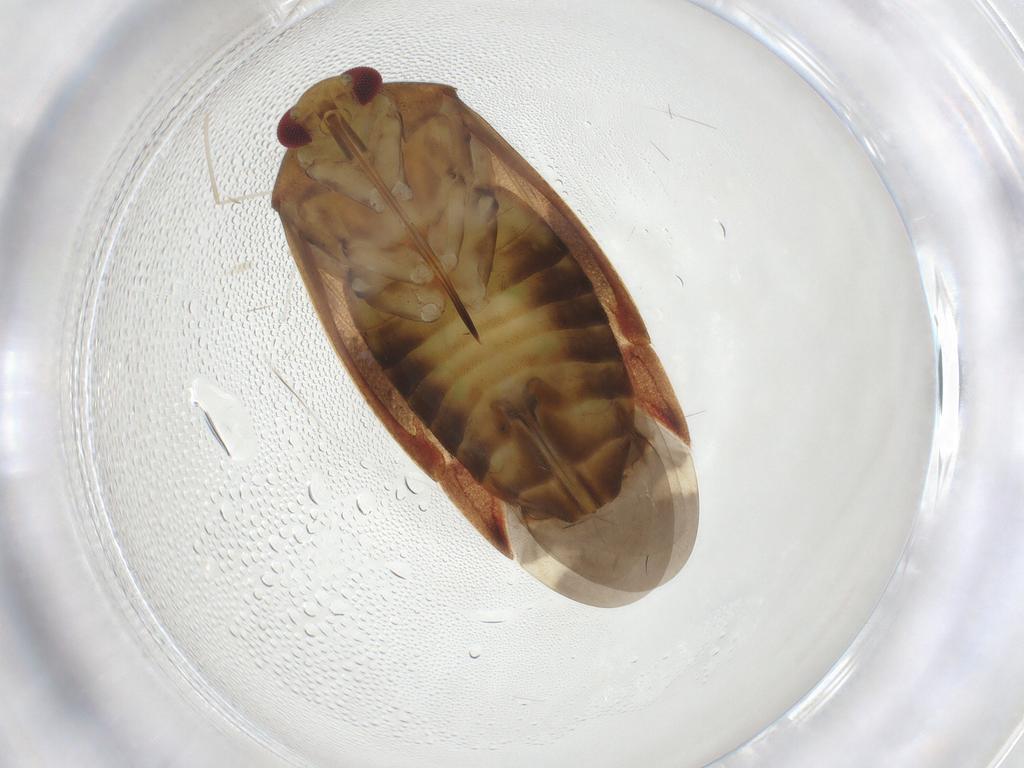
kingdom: Animalia
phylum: Arthropoda
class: Insecta
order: Hemiptera
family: Miridae
